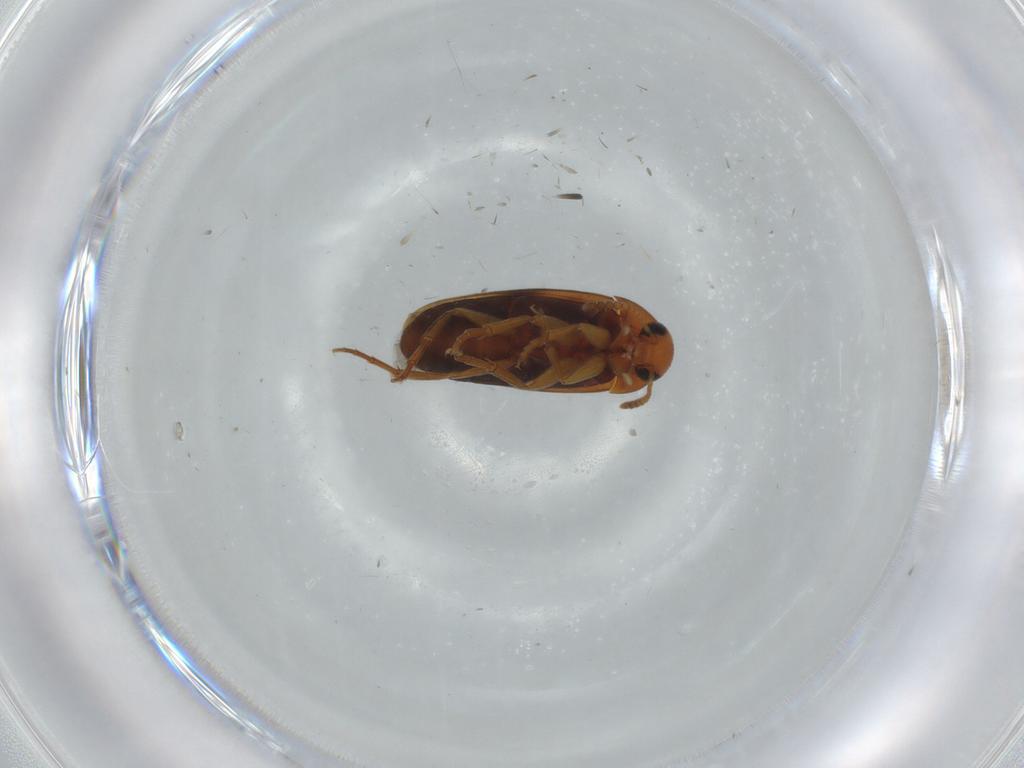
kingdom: Animalia
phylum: Arthropoda
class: Insecta
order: Coleoptera
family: Scraptiidae
